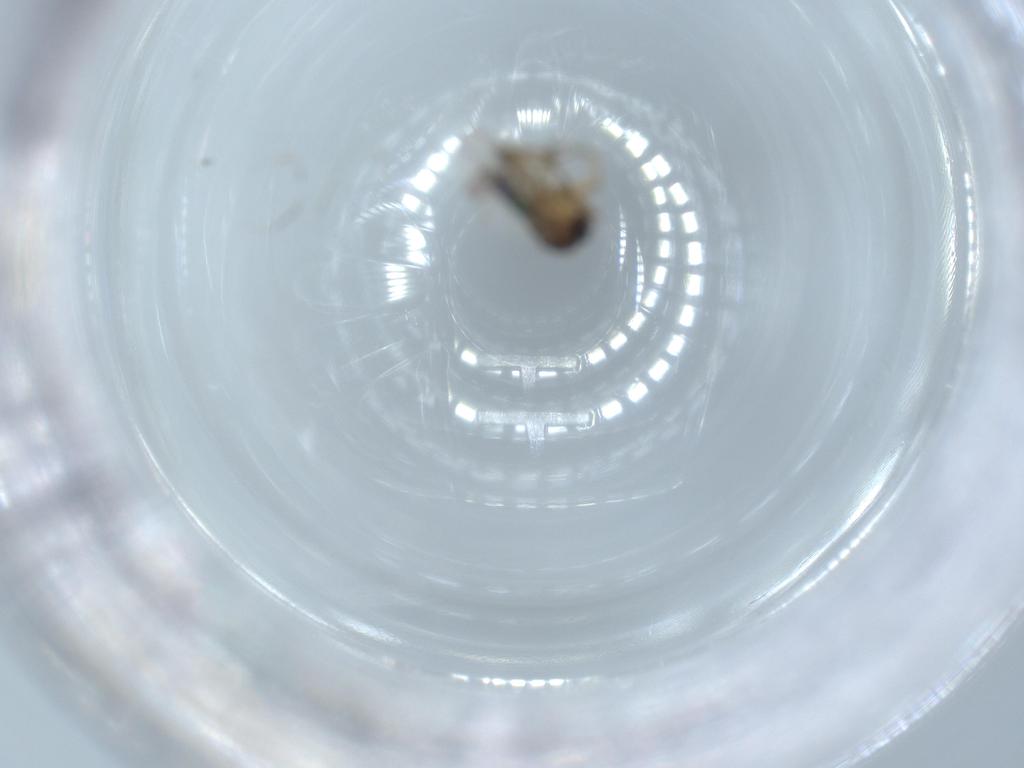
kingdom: Animalia
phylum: Arthropoda
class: Insecta
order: Diptera
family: Phoridae
